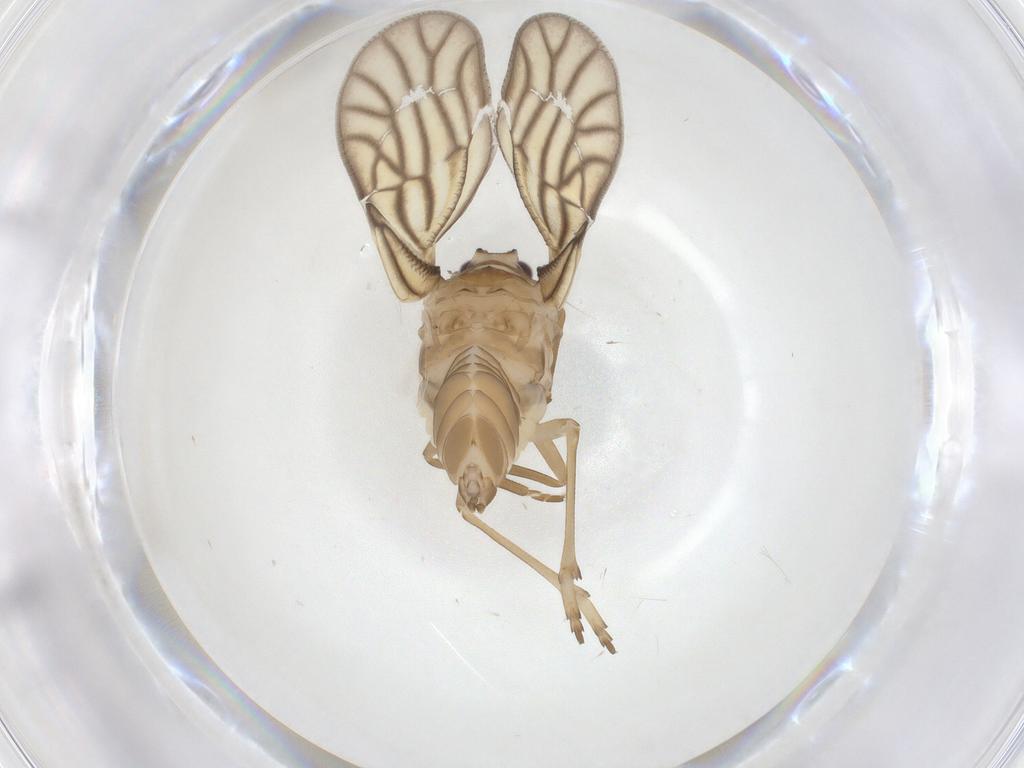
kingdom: Animalia
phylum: Arthropoda
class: Insecta
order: Hemiptera
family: Meenoplidae
